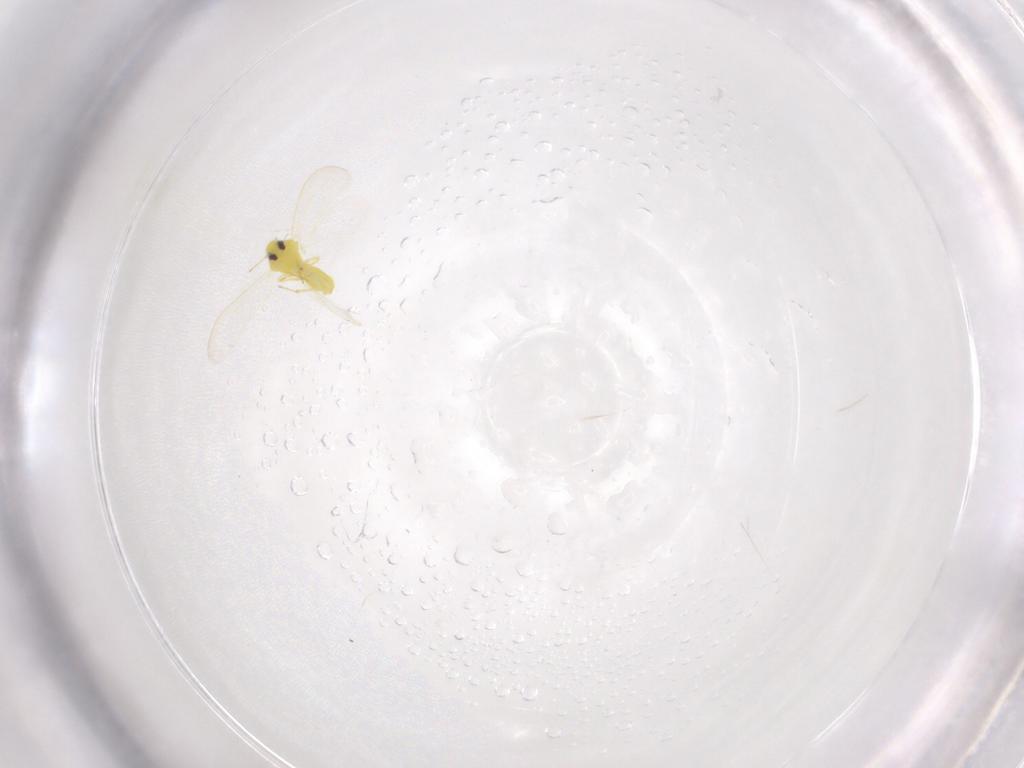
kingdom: Animalia
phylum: Arthropoda
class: Insecta
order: Hemiptera
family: Aleyrodidae
